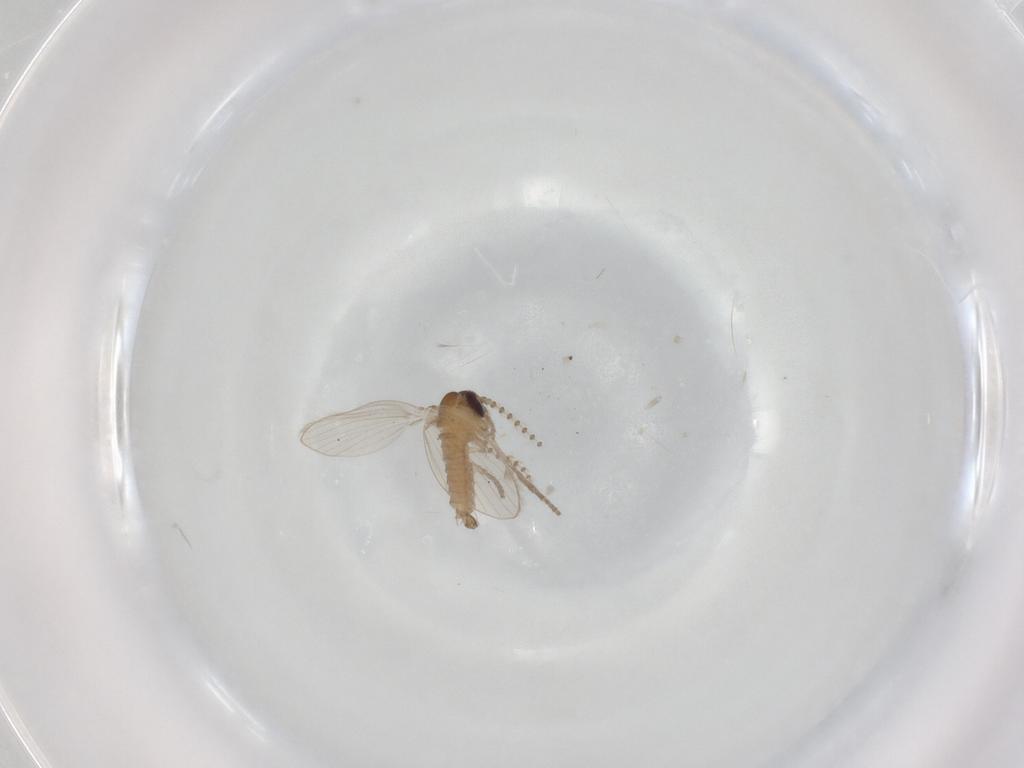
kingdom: Animalia
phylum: Arthropoda
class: Insecta
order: Diptera
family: Psychodidae
